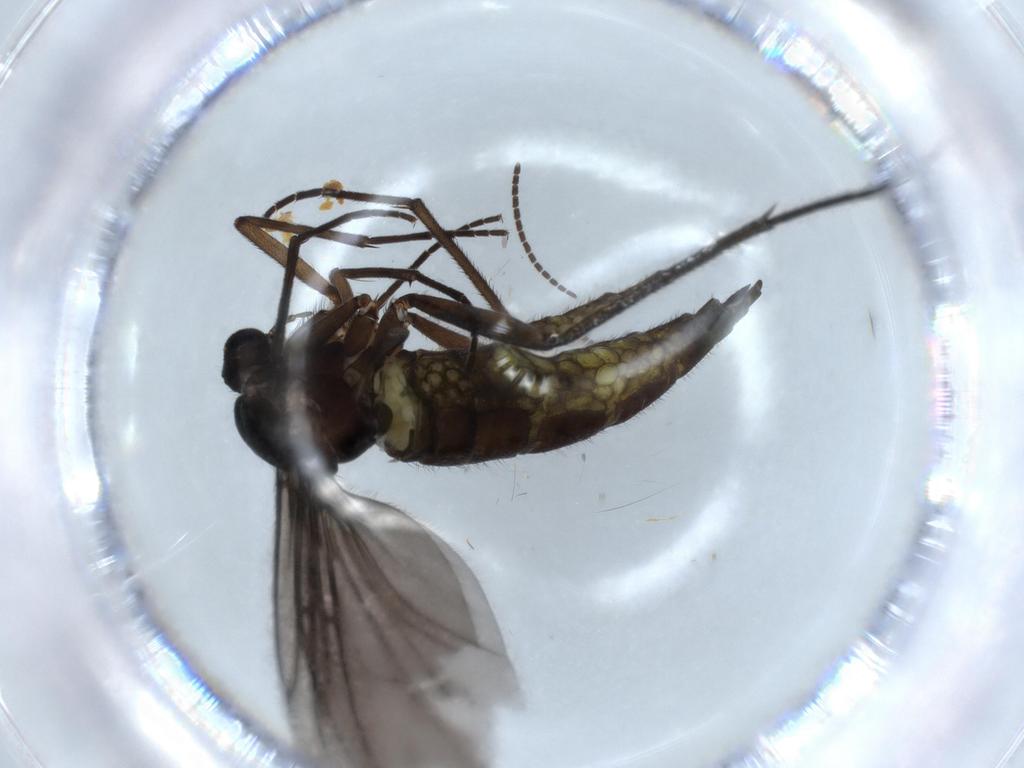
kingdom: Animalia
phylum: Arthropoda
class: Insecta
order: Diptera
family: Sciaridae
